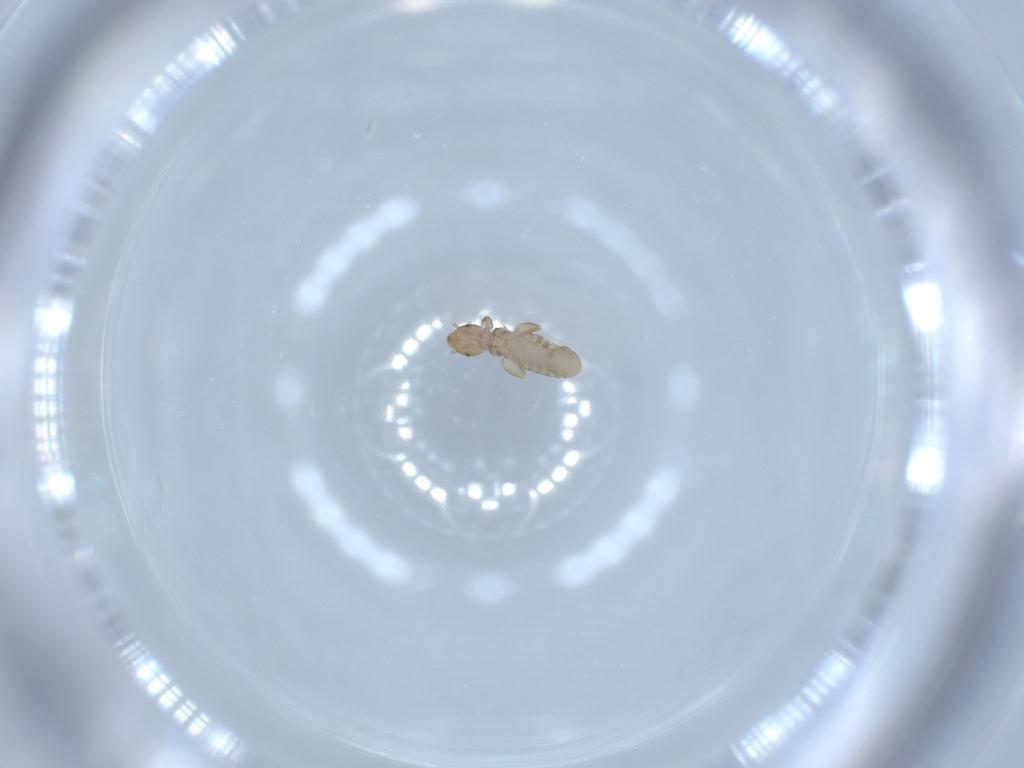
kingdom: Animalia
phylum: Arthropoda
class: Insecta
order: Psocodea
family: Liposcelididae
